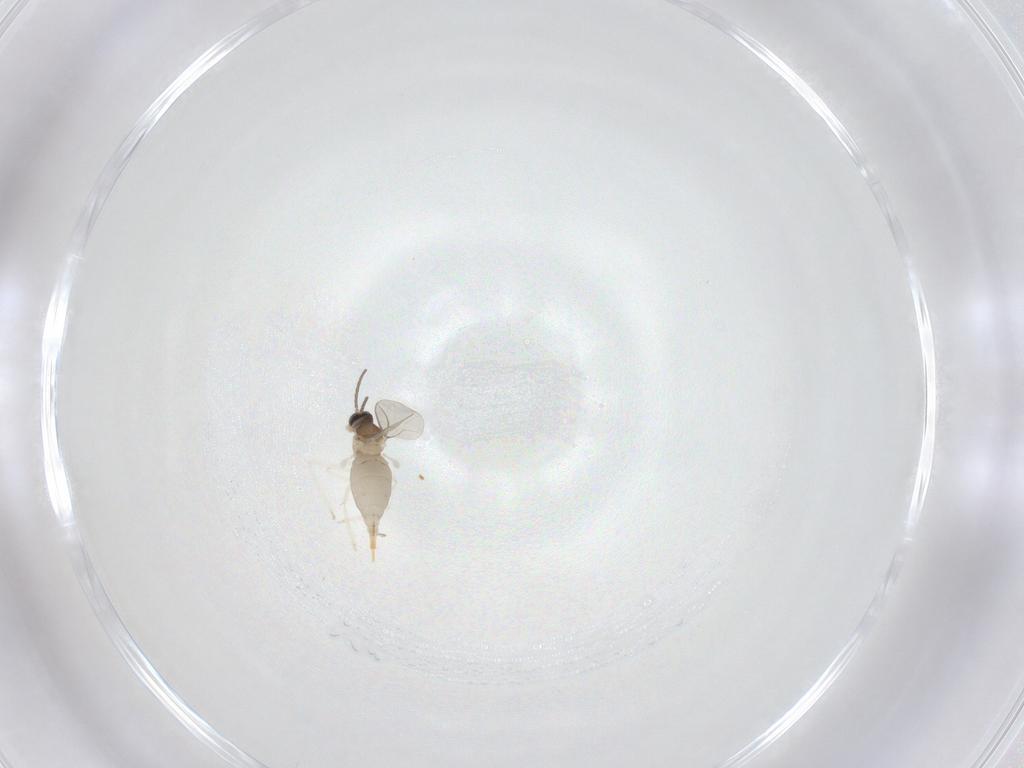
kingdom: Animalia
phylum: Arthropoda
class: Insecta
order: Diptera
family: Cecidomyiidae
